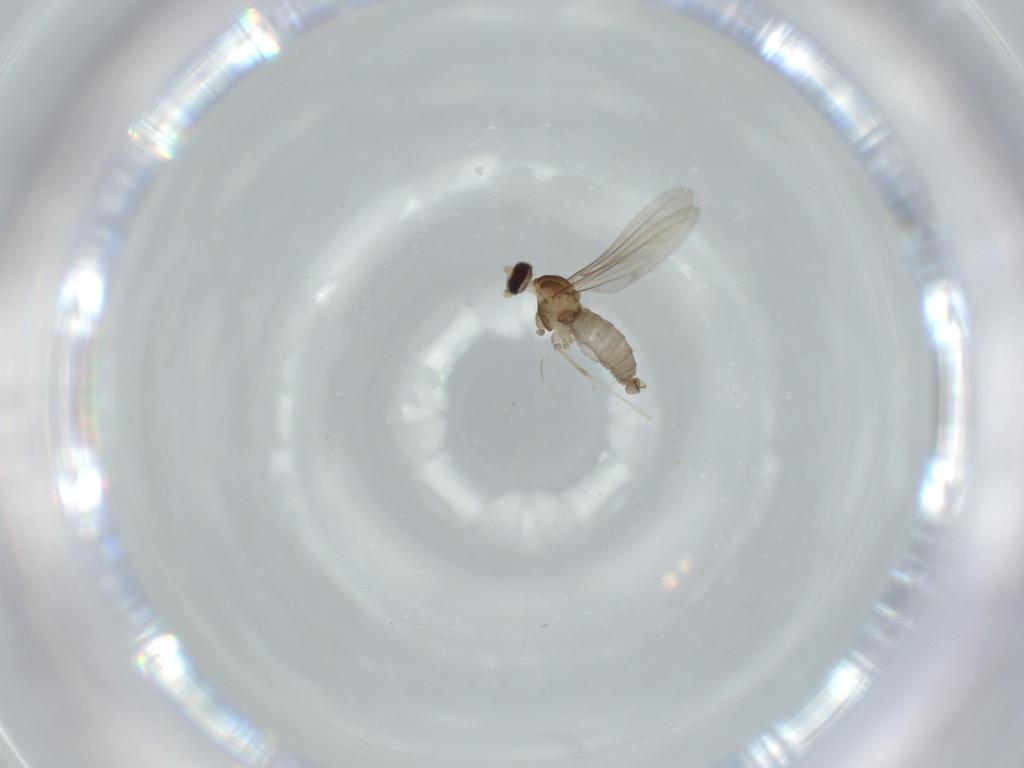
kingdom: Animalia
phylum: Arthropoda
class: Insecta
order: Diptera
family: Cecidomyiidae
